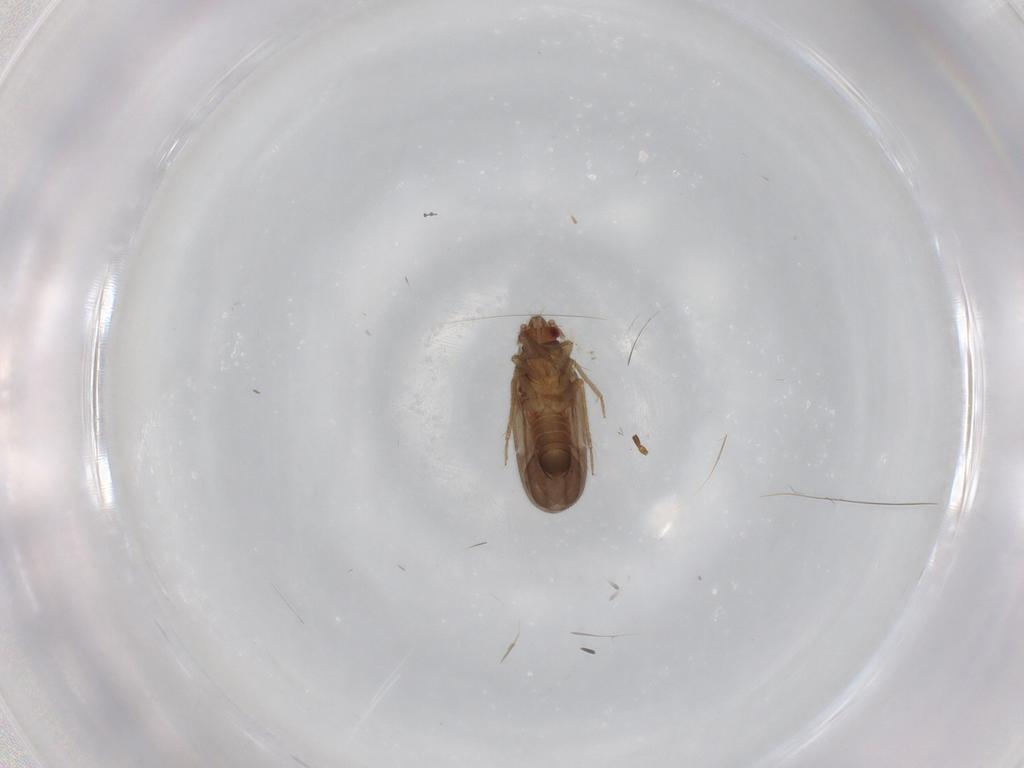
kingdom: Animalia
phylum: Arthropoda
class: Insecta
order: Hemiptera
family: Ceratocombidae
